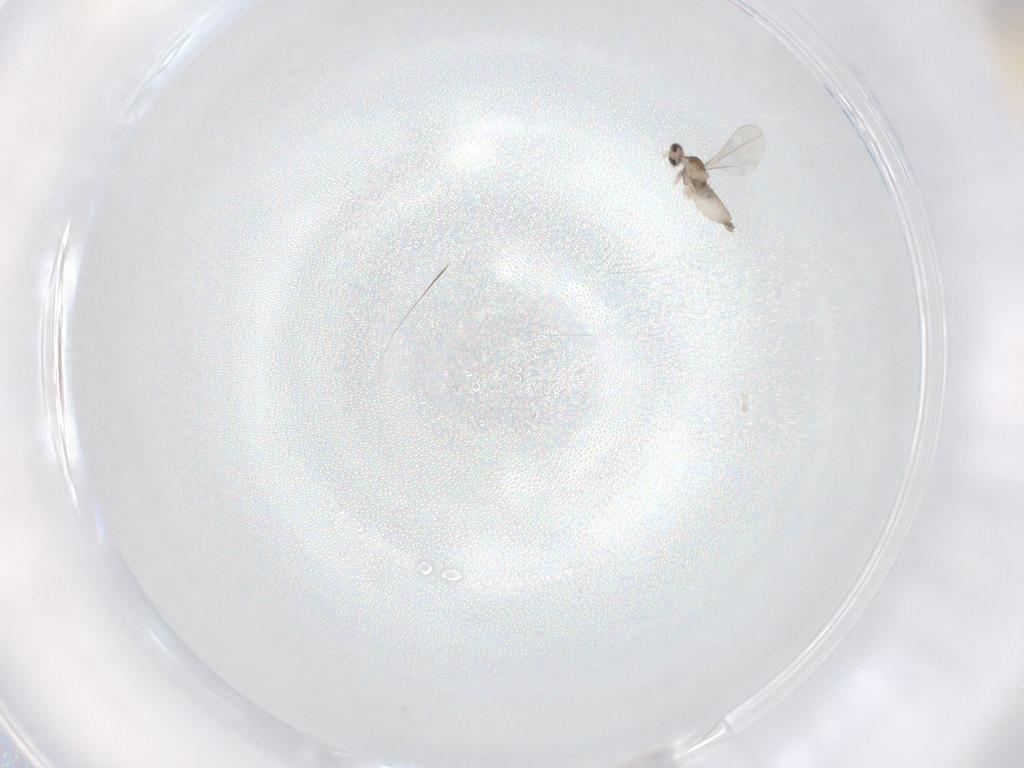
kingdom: Animalia
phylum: Arthropoda
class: Insecta
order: Diptera
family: Cecidomyiidae
